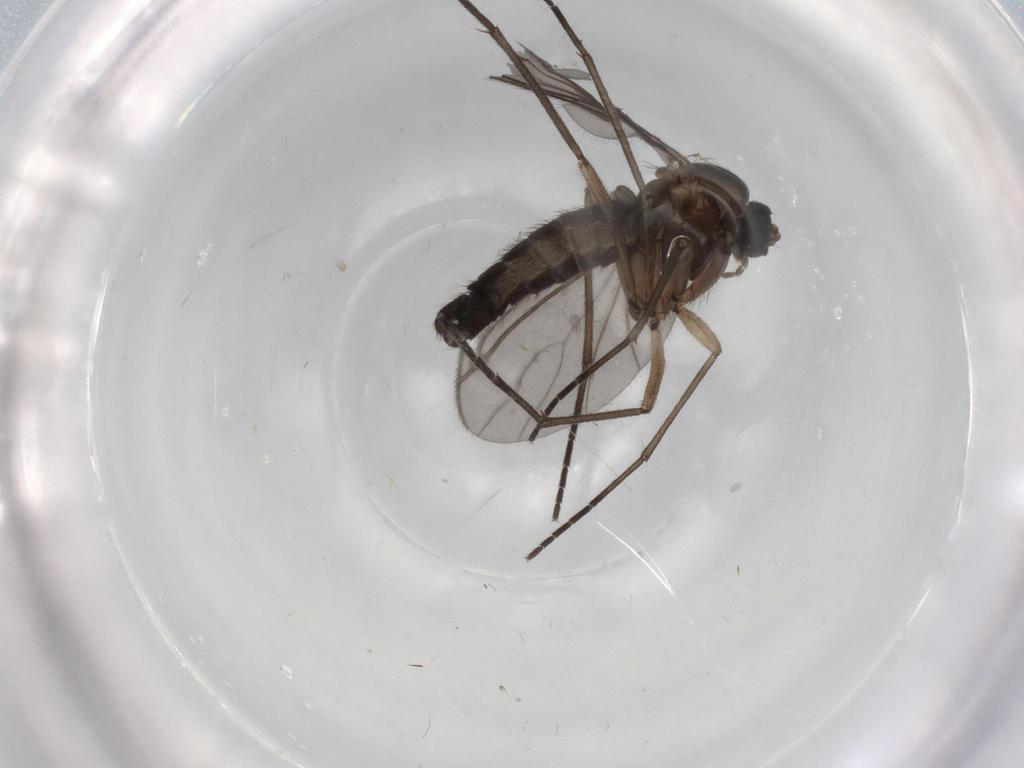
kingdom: Animalia
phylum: Arthropoda
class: Insecta
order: Diptera
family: Sciaridae
